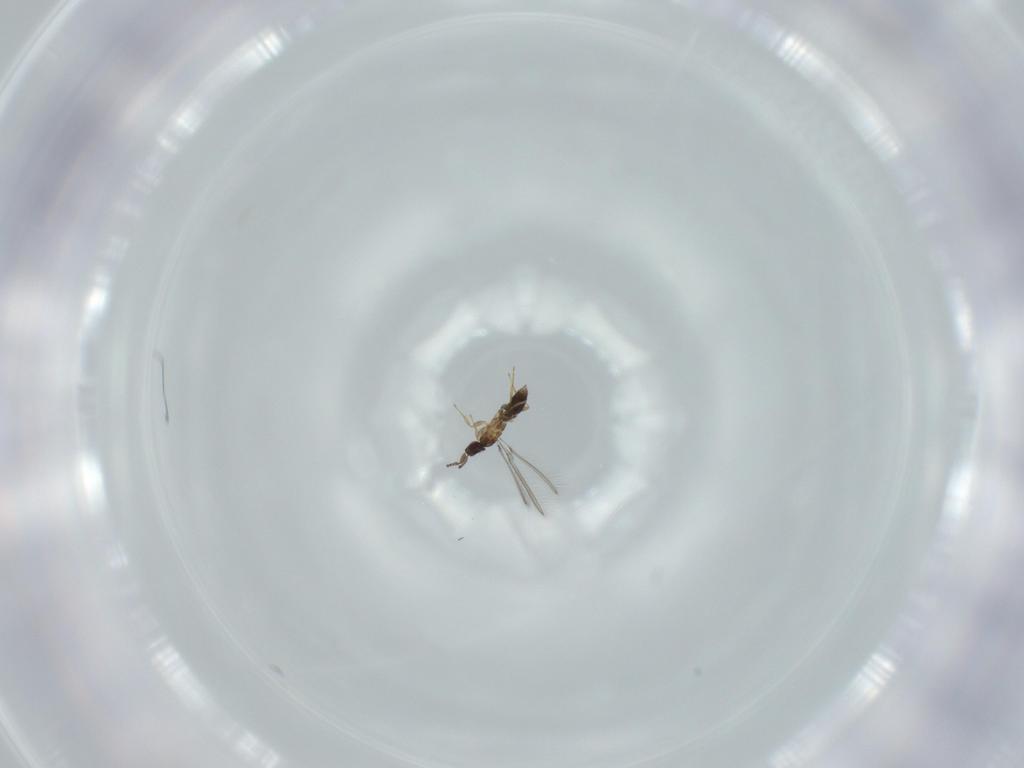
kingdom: Animalia
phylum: Arthropoda
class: Insecta
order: Hymenoptera
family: Mymaridae
